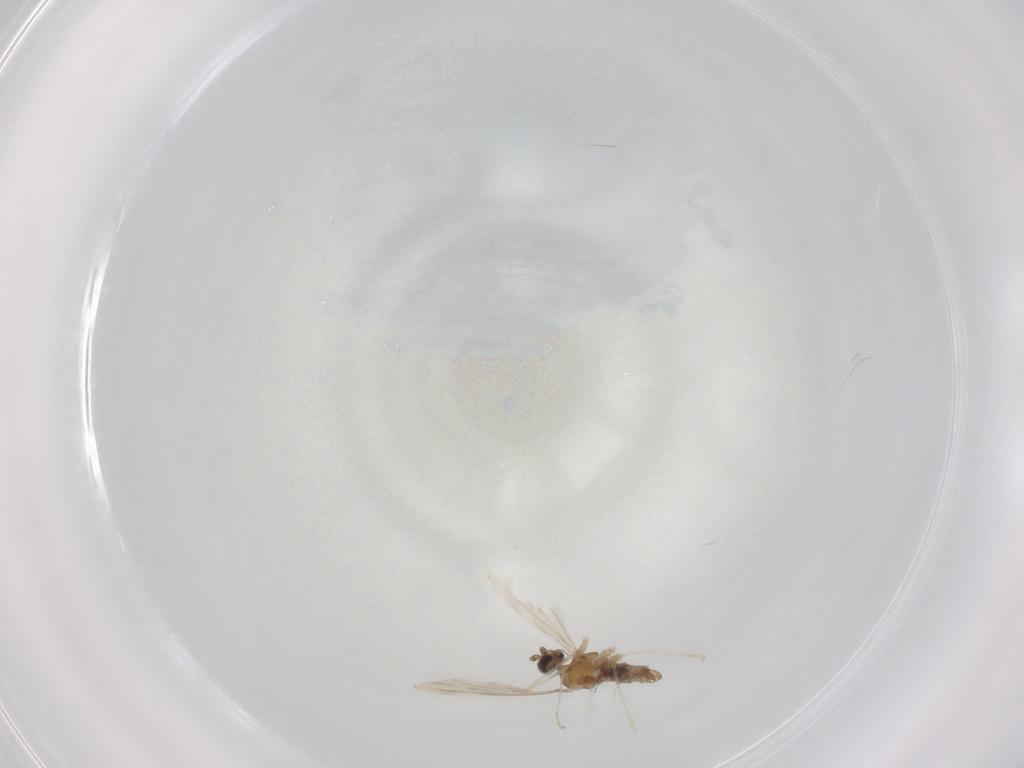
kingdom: Animalia
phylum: Arthropoda
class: Insecta
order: Diptera
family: Cecidomyiidae
